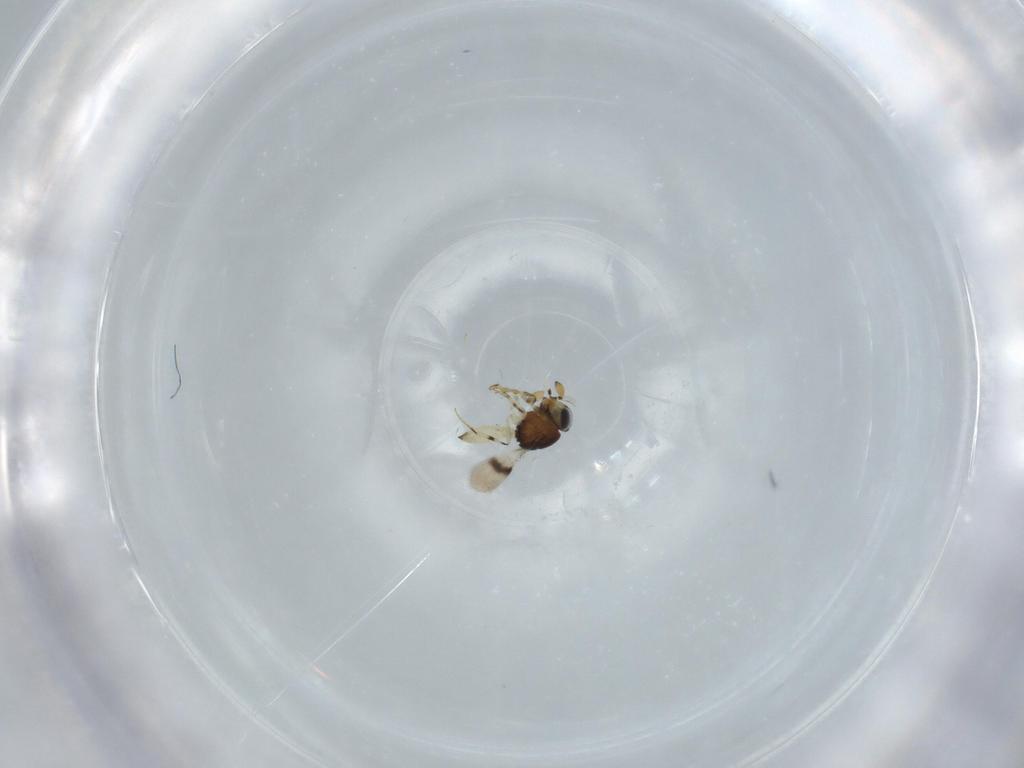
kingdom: Animalia
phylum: Arthropoda
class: Insecta
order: Hymenoptera
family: Scelionidae
